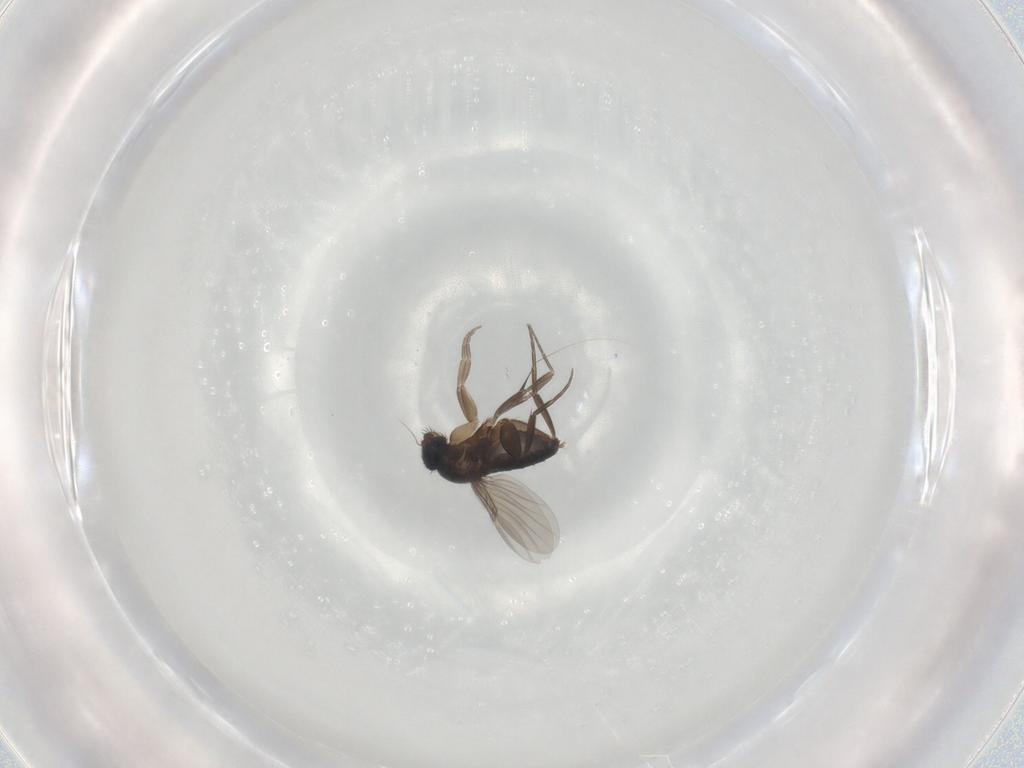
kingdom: Animalia
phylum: Arthropoda
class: Insecta
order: Diptera
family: Phoridae
